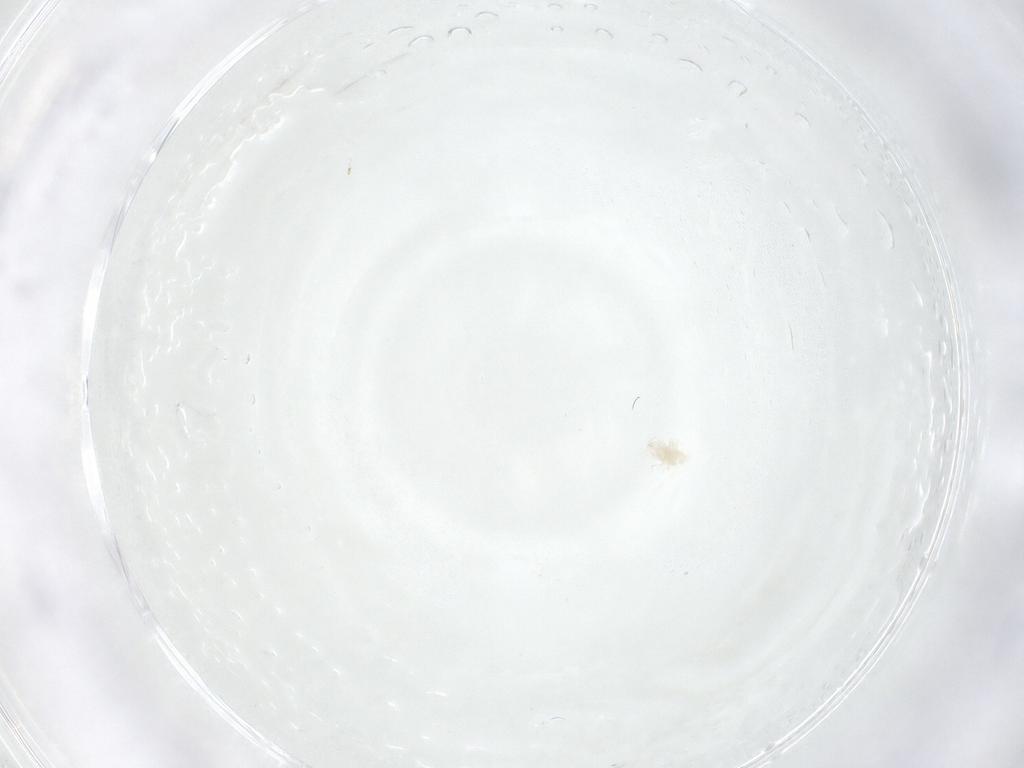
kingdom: Animalia
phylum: Arthropoda
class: Arachnida
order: Mesostigmata
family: Melicharidae
